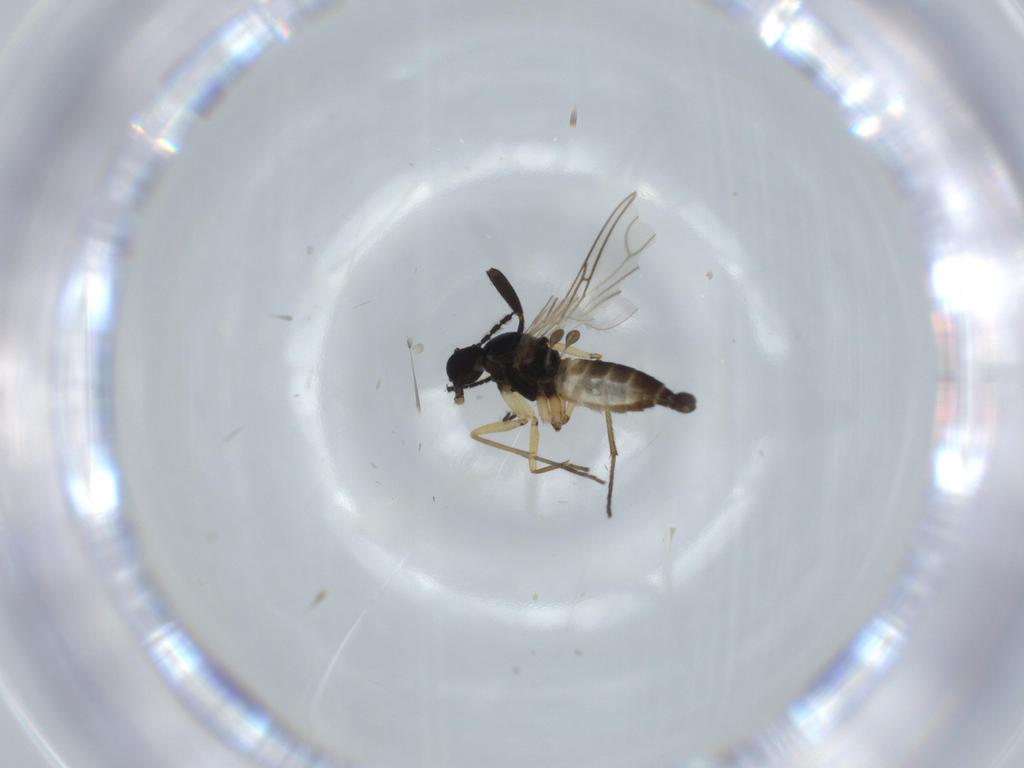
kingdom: Animalia
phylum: Arthropoda
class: Insecta
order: Diptera
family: Sciaridae
